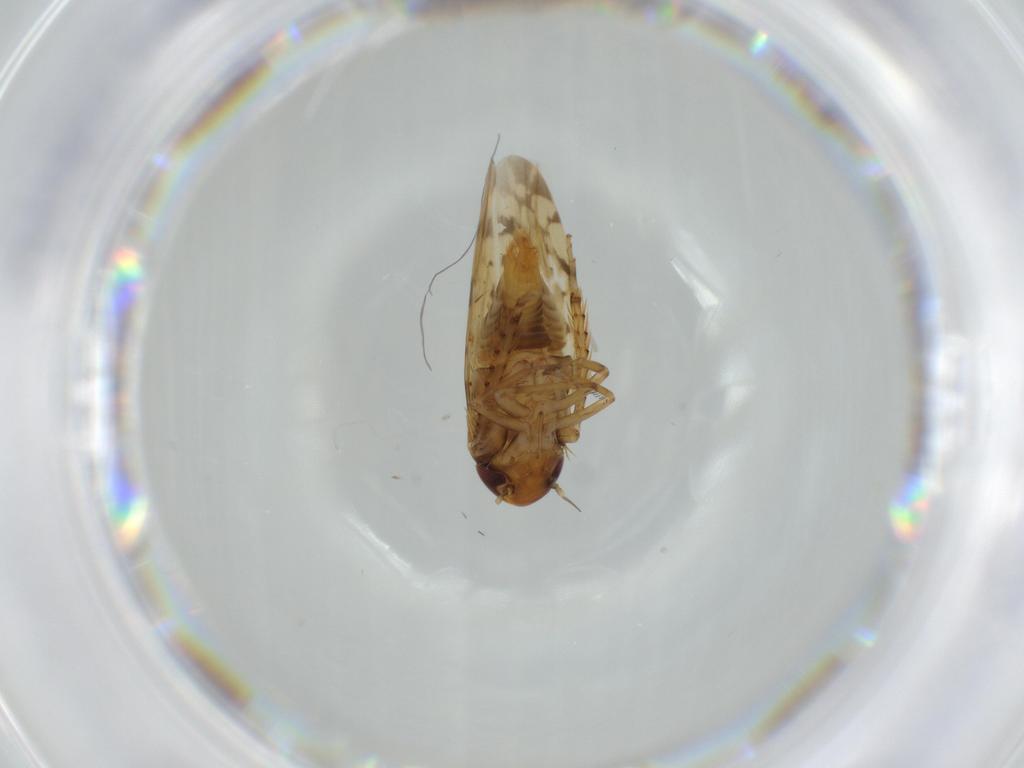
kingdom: Animalia
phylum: Arthropoda
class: Insecta
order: Hemiptera
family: Cicadellidae
